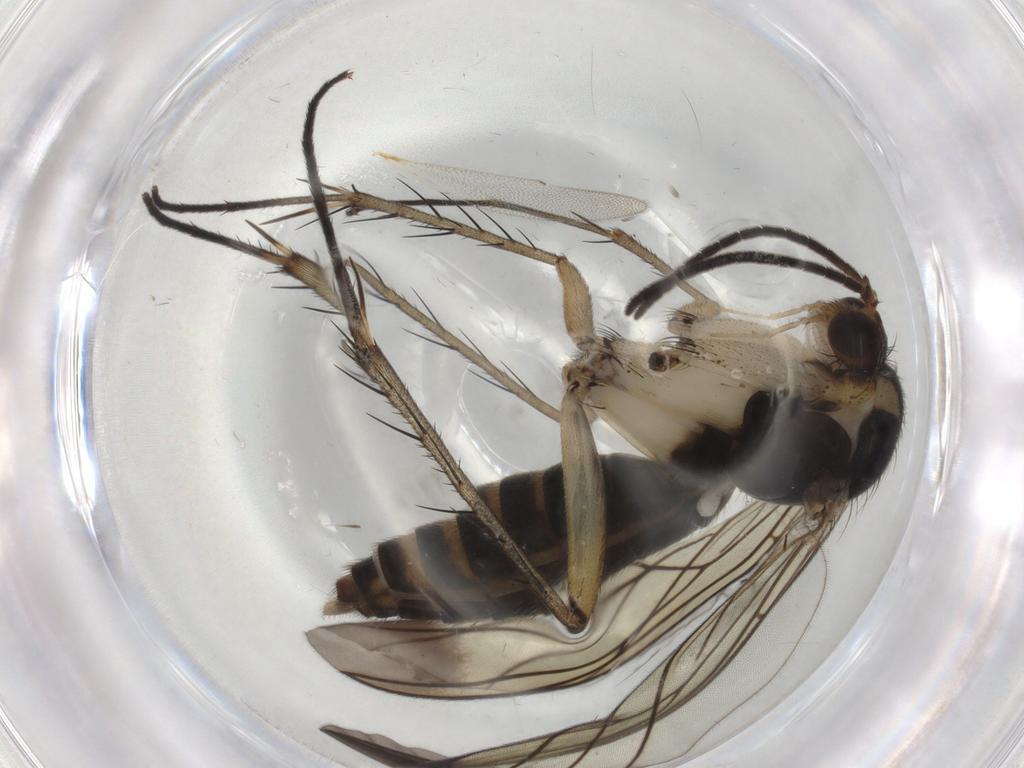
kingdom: Animalia
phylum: Arthropoda
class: Insecta
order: Diptera
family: Mycetophilidae
